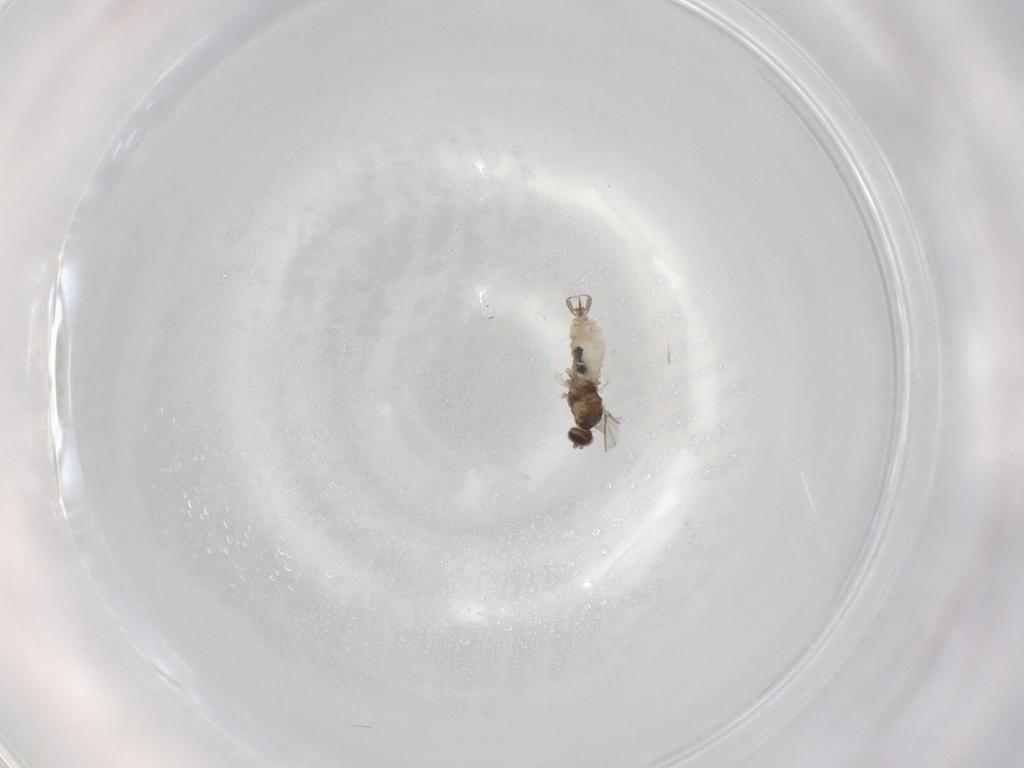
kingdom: Animalia
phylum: Arthropoda
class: Insecta
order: Diptera
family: Cecidomyiidae
